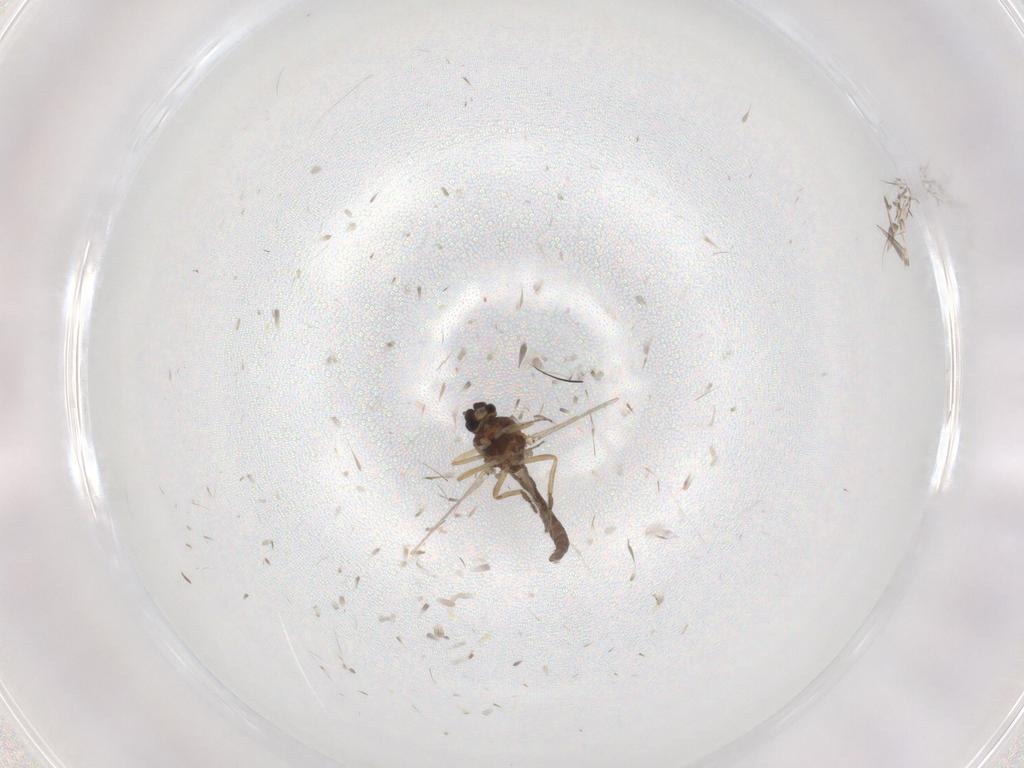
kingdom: Animalia
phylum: Arthropoda
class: Insecta
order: Diptera
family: Ceratopogonidae
